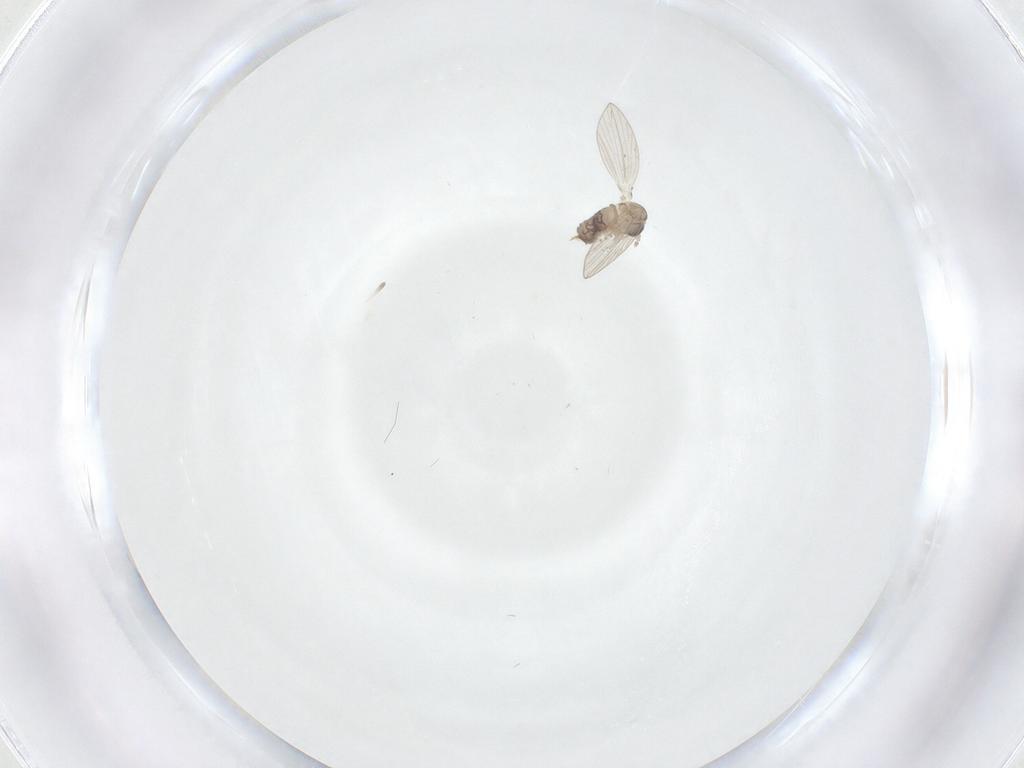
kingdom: Animalia
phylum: Arthropoda
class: Insecta
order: Diptera
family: Psychodidae
